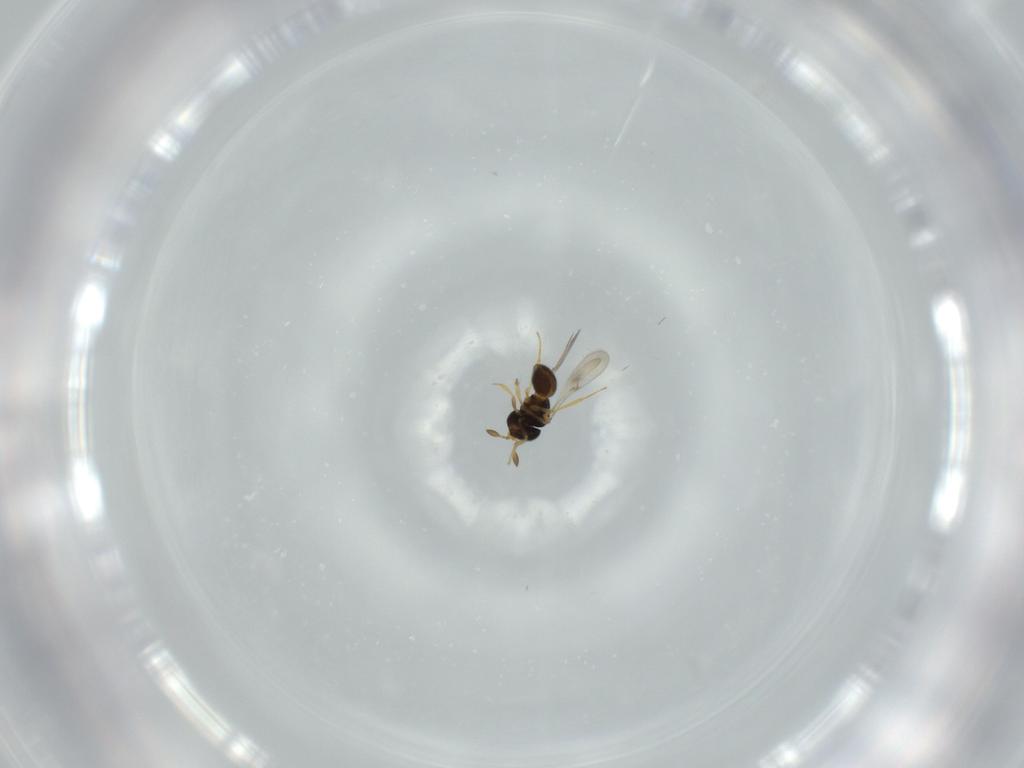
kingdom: Animalia
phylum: Arthropoda
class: Insecta
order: Hymenoptera
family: Scelionidae
